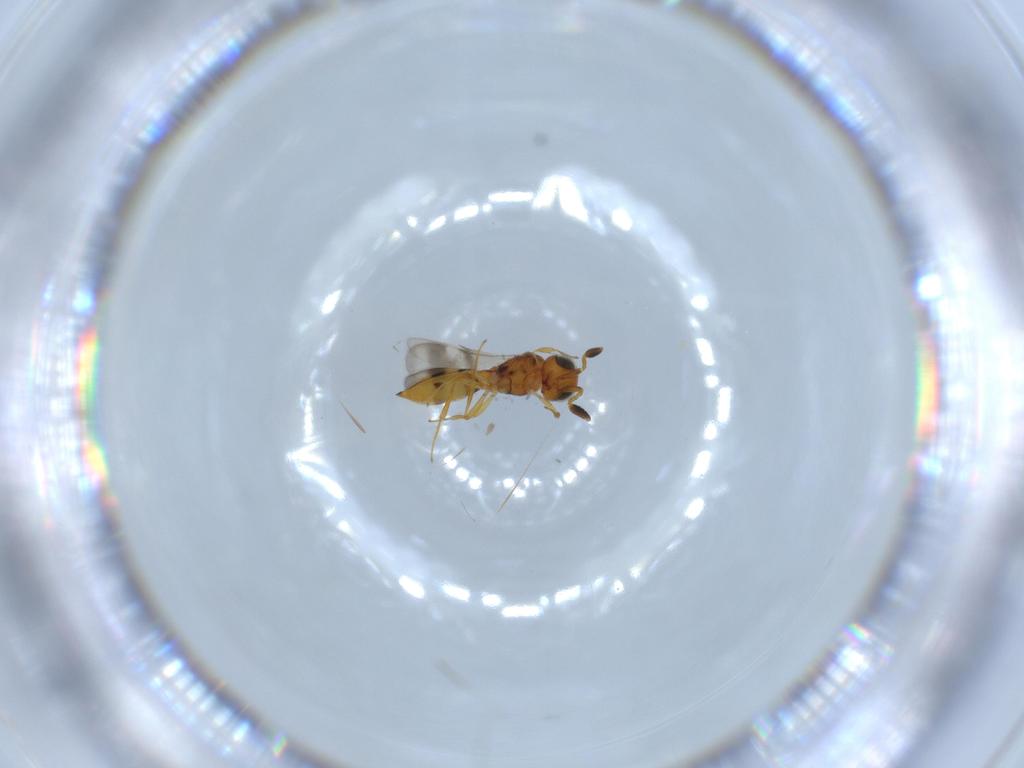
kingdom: Animalia
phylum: Arthropoda
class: Insecta
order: Hymenoptera
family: Scelionidae
